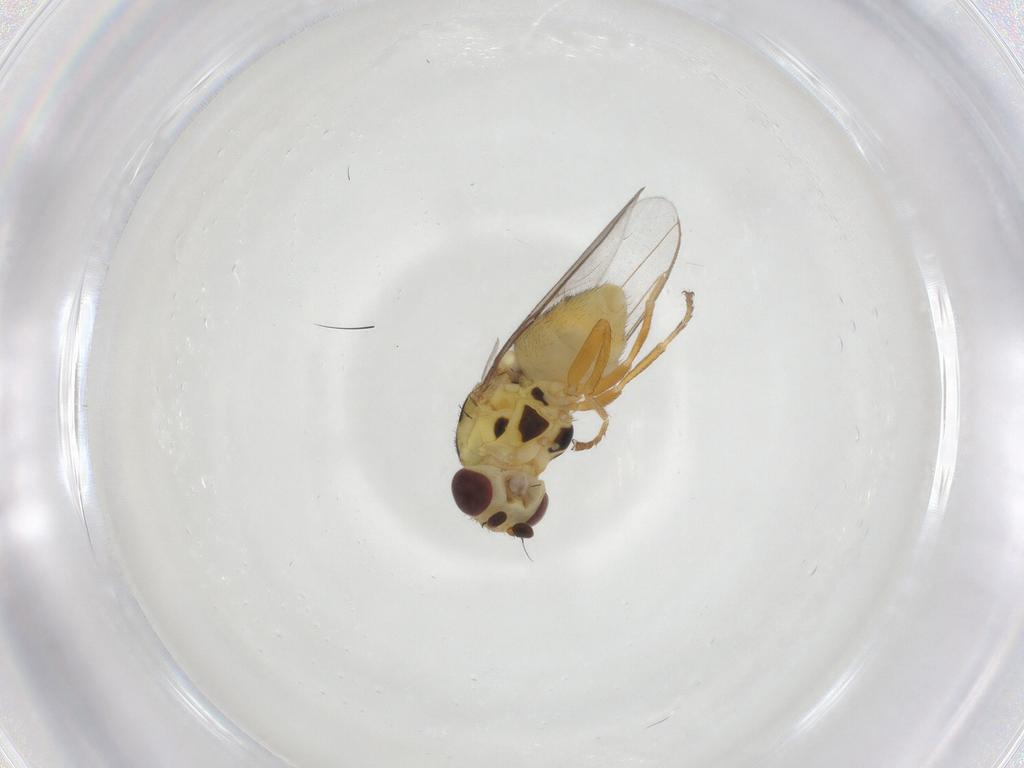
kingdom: Animalia
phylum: Arthropoda
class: Insecta
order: Diptera
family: Chloropidae
